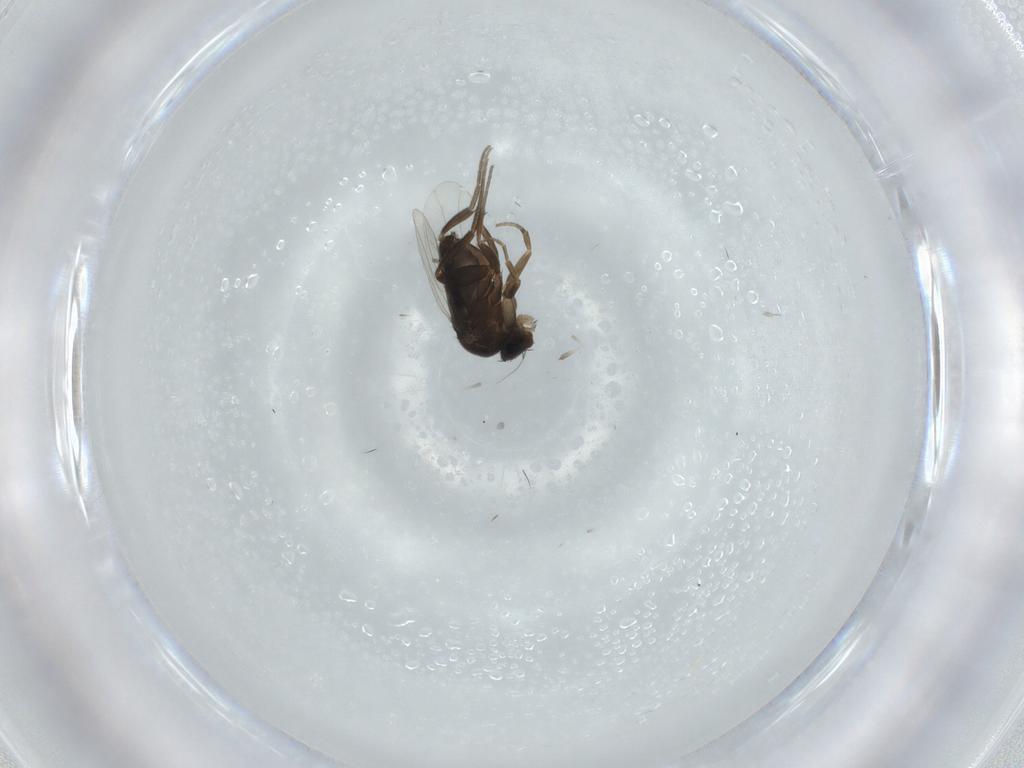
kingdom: Animalia
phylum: Arthropoda
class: Insecta
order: Diptera
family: Phoridae
